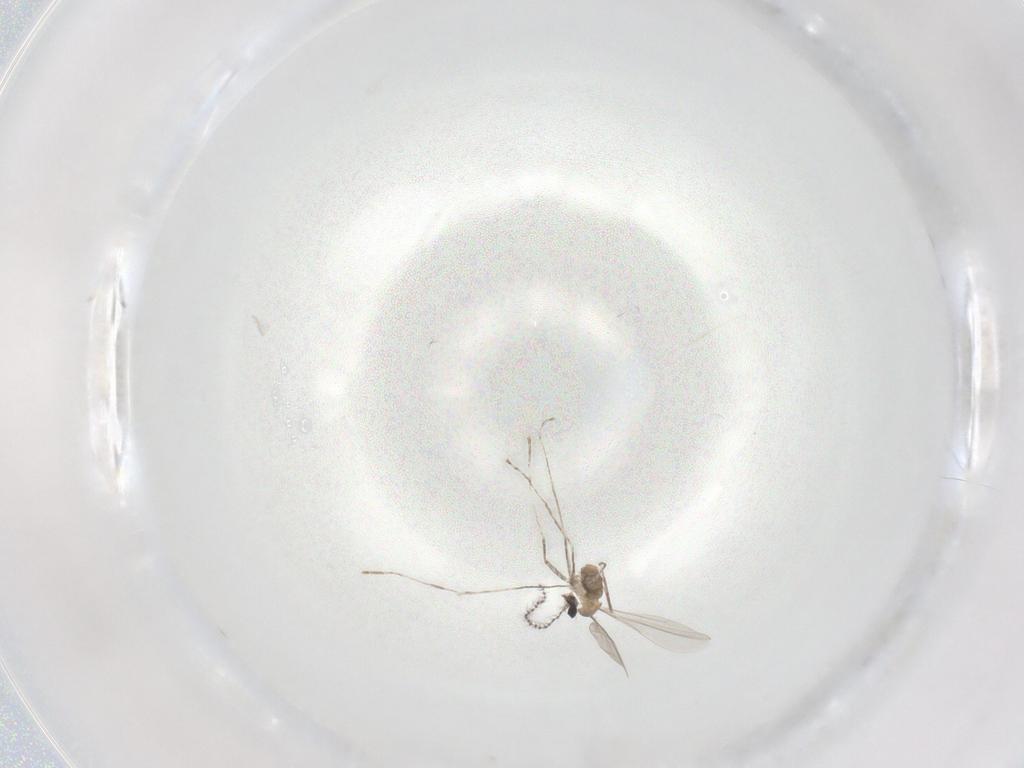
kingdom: Animalia
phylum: Arthropoda
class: Insecta
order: Diptera
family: Cecidomyiidae
